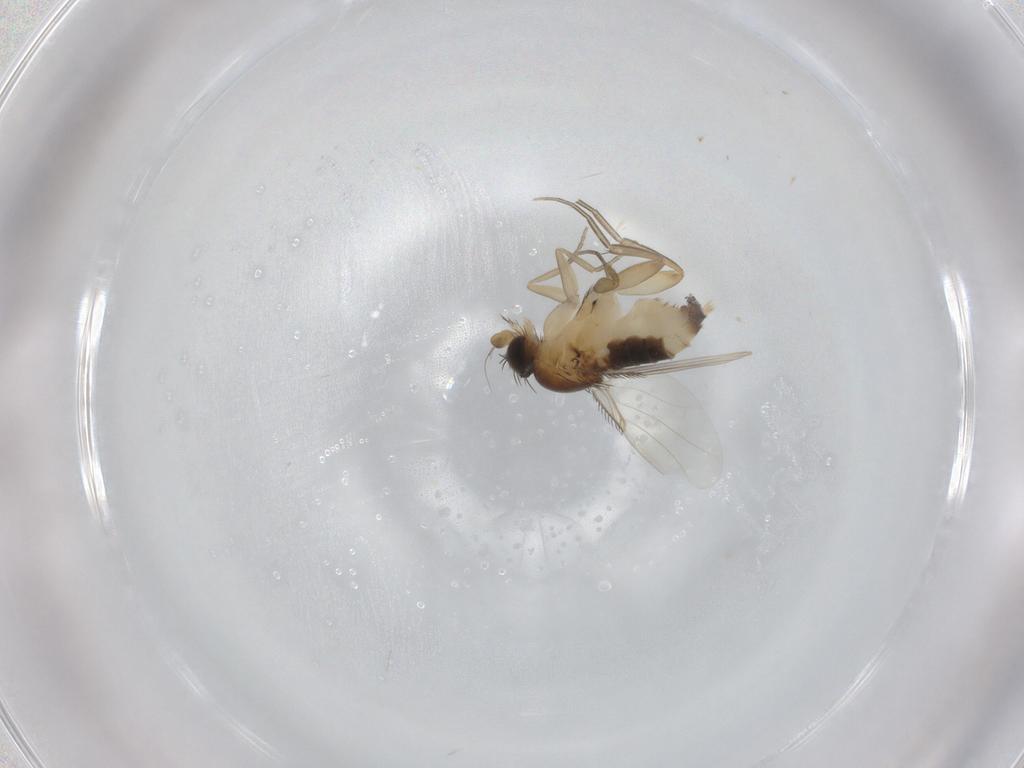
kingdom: Animalia
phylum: Arthropoda
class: Insecta
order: Diptera
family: Phoridae
